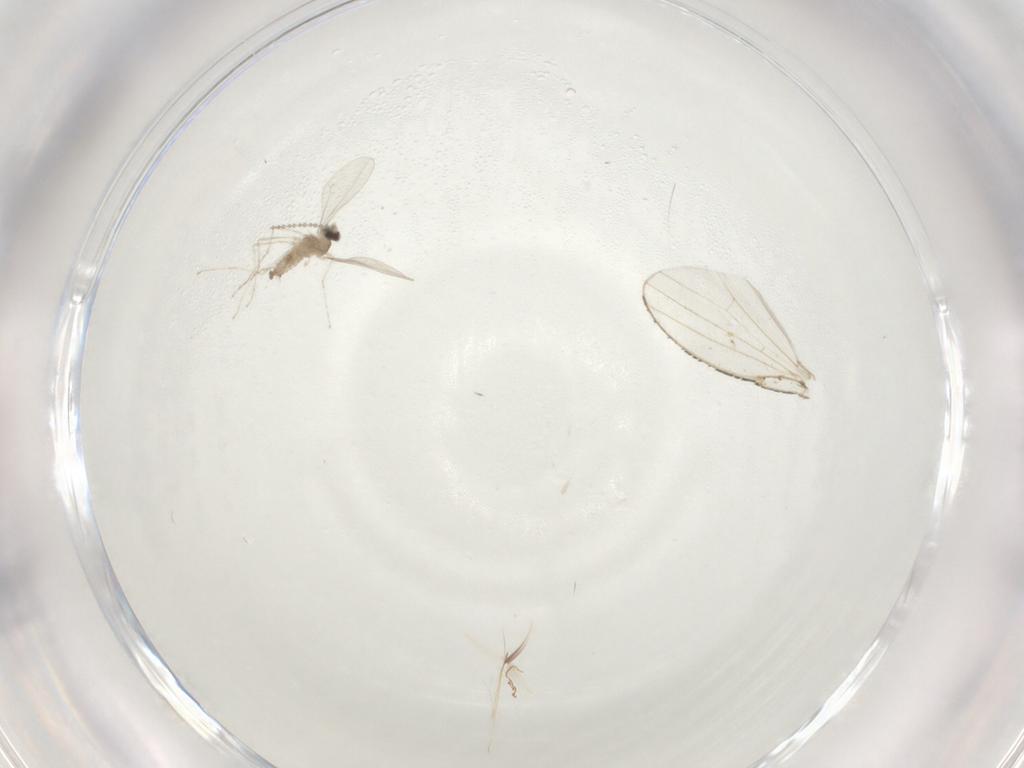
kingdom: Animalia
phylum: Arthropoda
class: Insecta
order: Diptera
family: Cecidomyiidae
